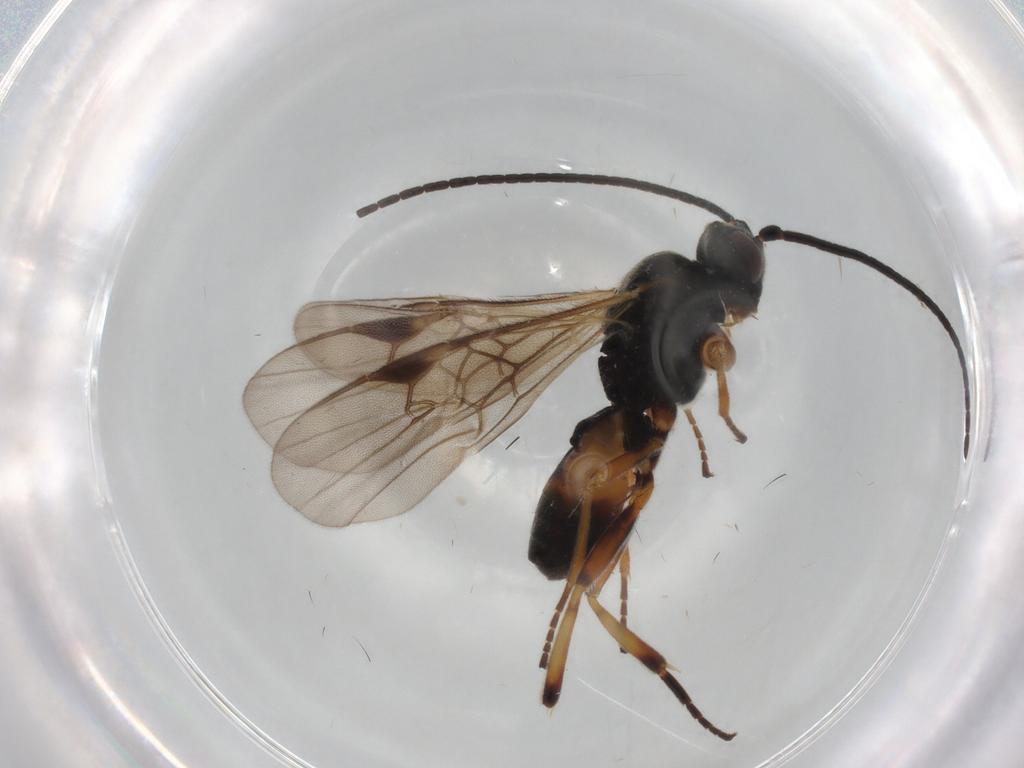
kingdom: Animalia
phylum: Arthropoda
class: Insecta
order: Hymenoptera
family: Braconidae
